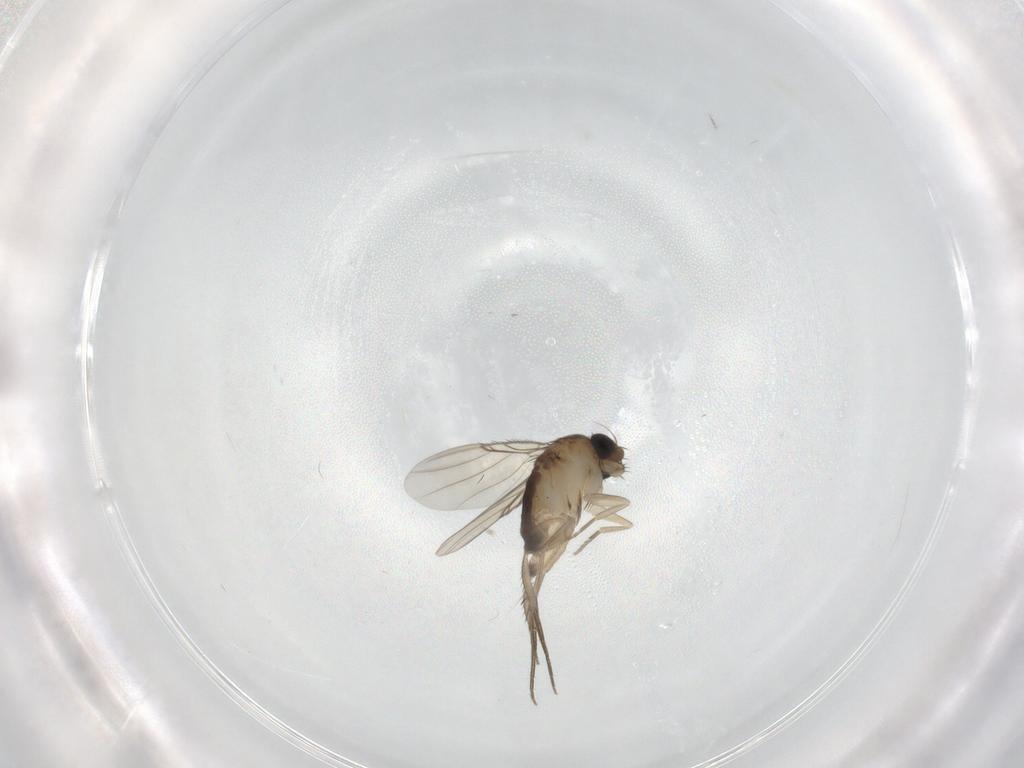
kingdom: Animalia
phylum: Arthropoda
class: Insecta
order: Diptera
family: Phoridae
